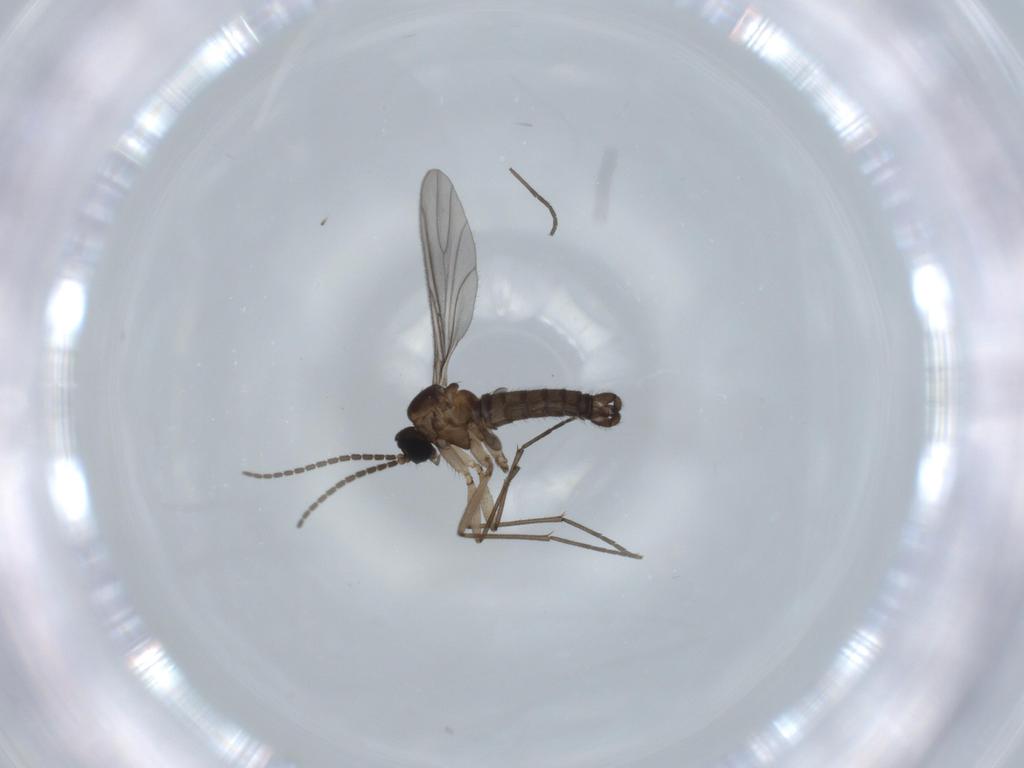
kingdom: Animalia
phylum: Arthropoda
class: Insecta
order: Diptera
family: Sciaridae
